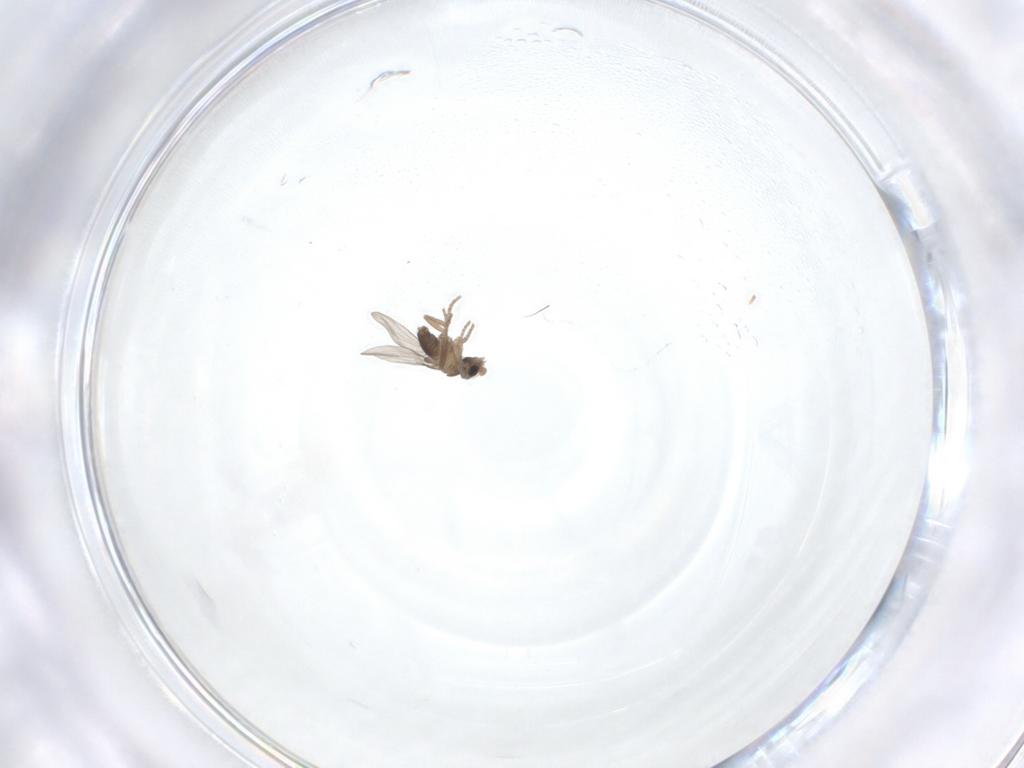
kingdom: Animalia
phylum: Arthropoda
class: Insecta
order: Diptera
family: Phoridae
